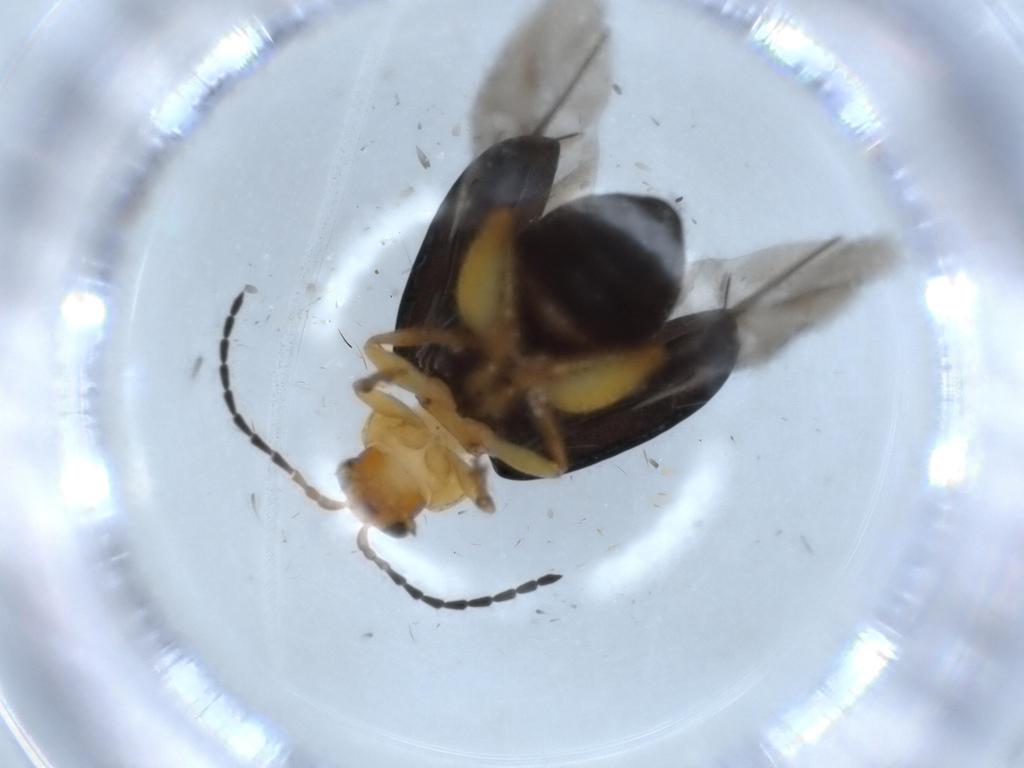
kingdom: Animalia
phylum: Arthropoda
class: Insecta
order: Coleoptera
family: Chrysomelidae
